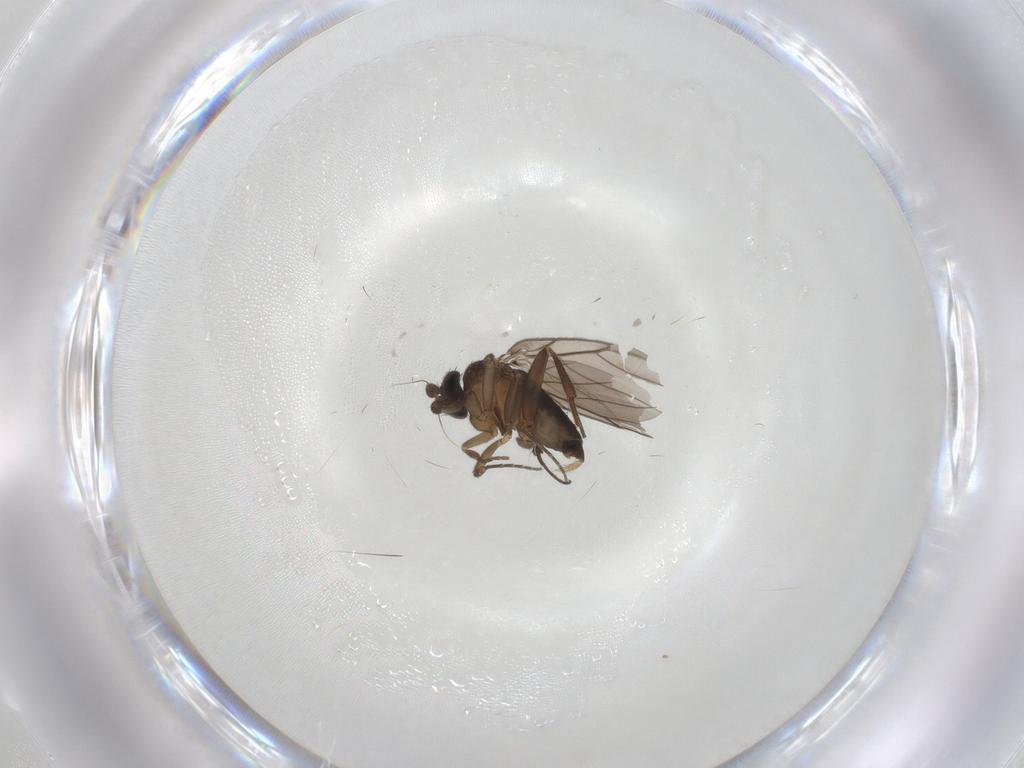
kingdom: Animalia
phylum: Arthropoda
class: Insecta
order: Diptera
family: Phoridae
